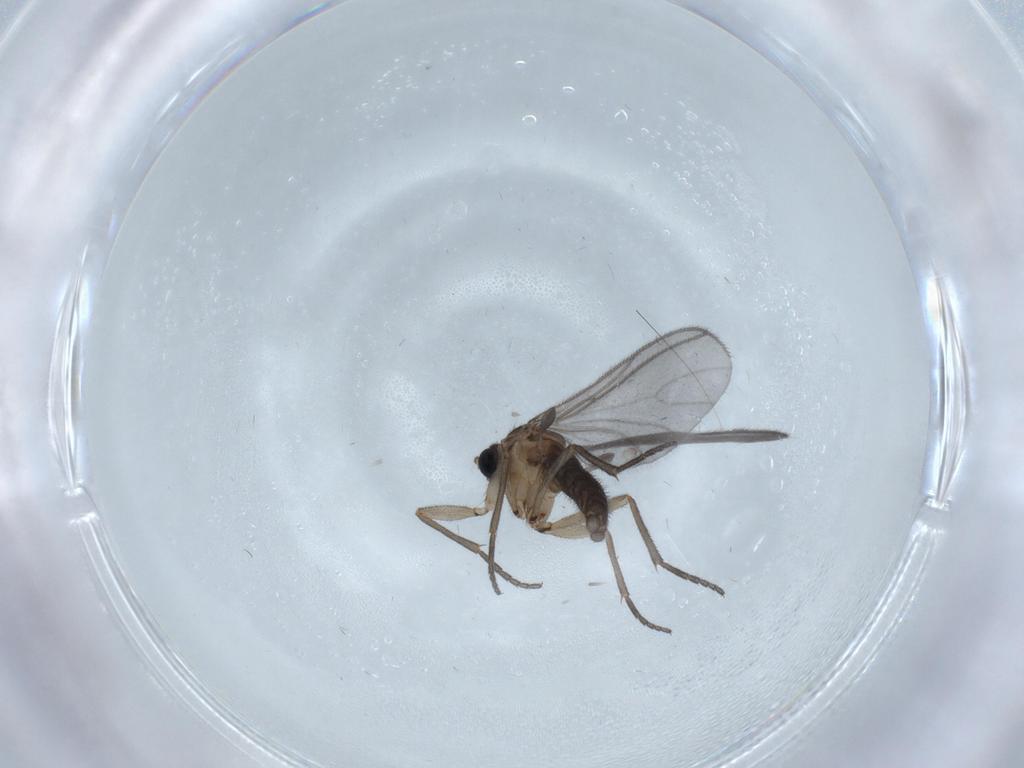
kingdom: Animalia
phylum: Arthropoda
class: Insecta
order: Diptera
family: Sciaridae
